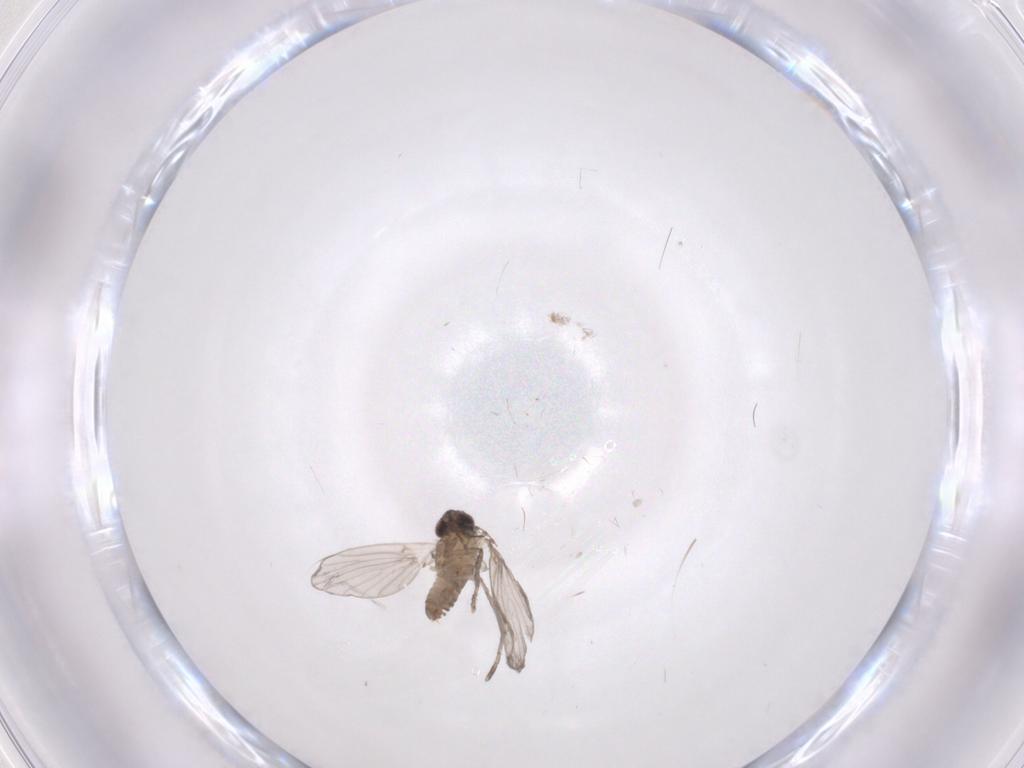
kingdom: Animalia
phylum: Arthropoda
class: Insecta
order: Diptera
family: Psychodidae
